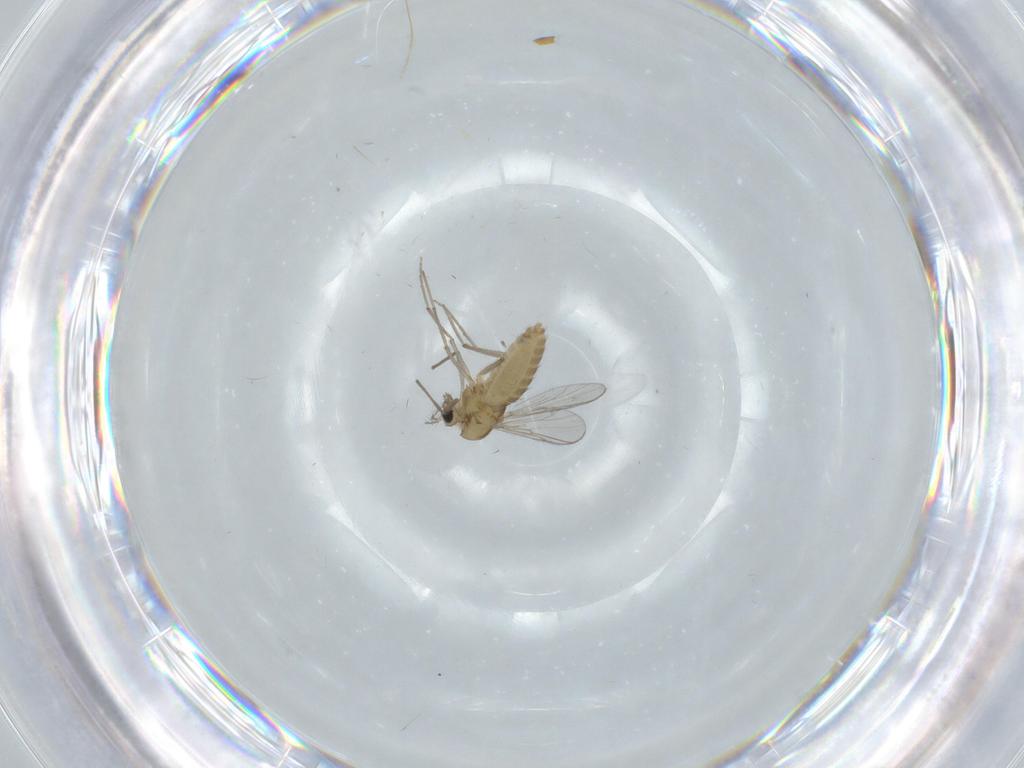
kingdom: Animalia
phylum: Arthropoda
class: Insecta
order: Diptera
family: Chironomidae
